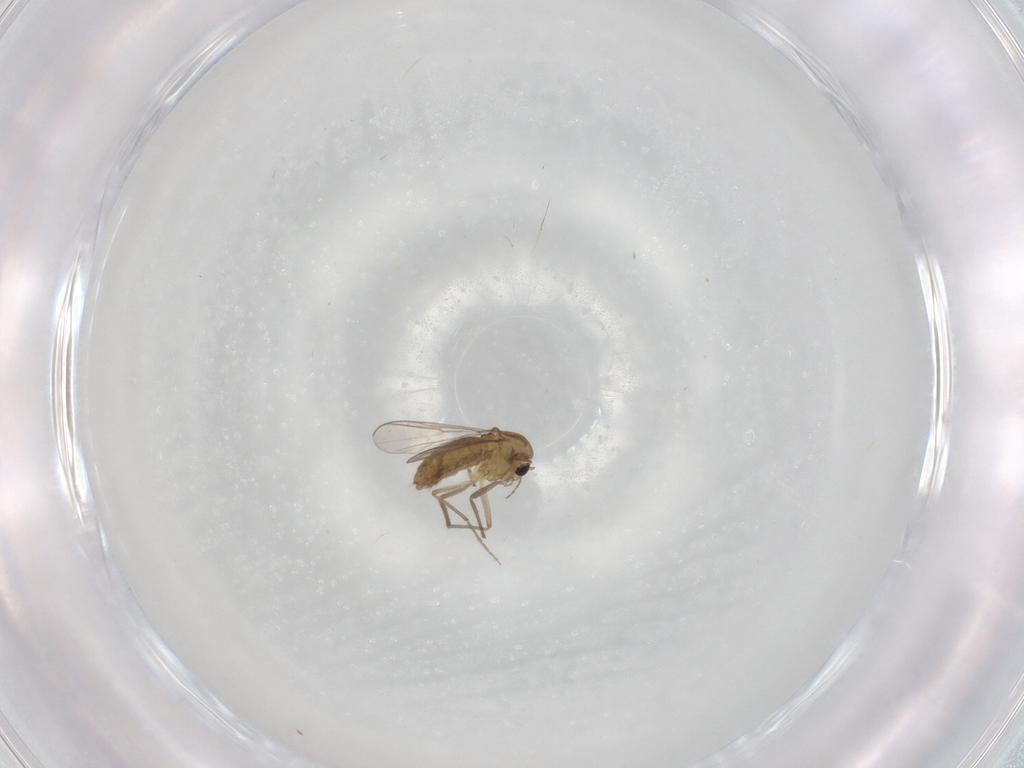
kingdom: Animalia
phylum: Arthropoda
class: Insecta
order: Diptera
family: Chironomidae
